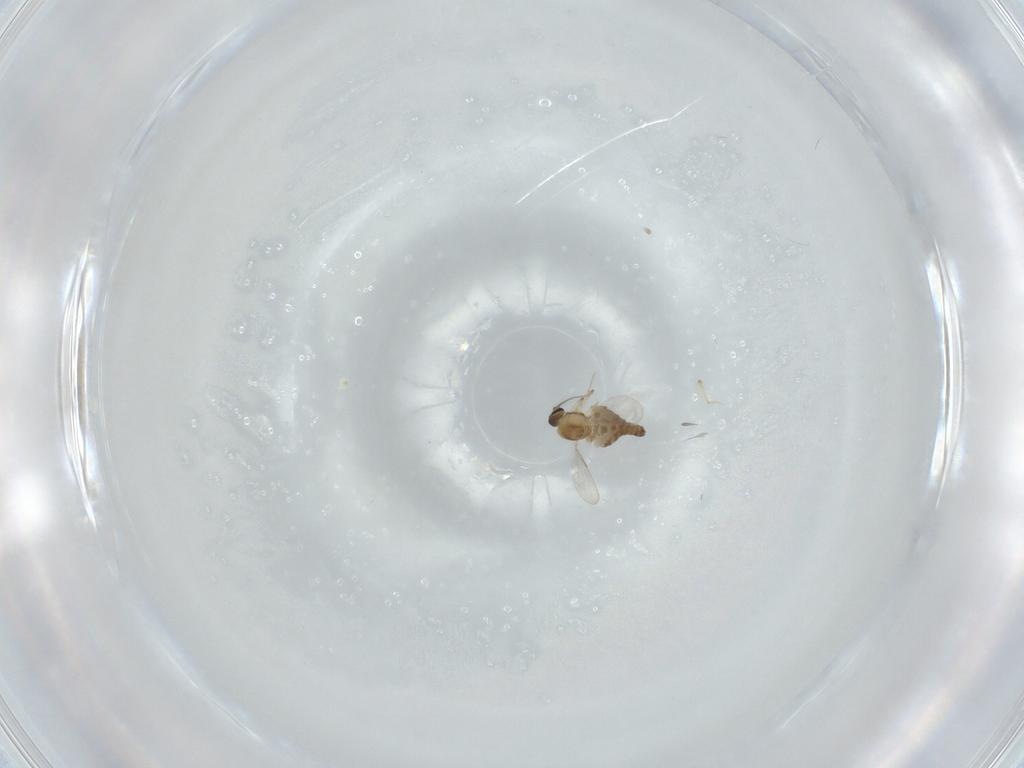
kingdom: Animalia
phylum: Arthropoda
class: Insecta
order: Diptera
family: Ceratopogonidae
